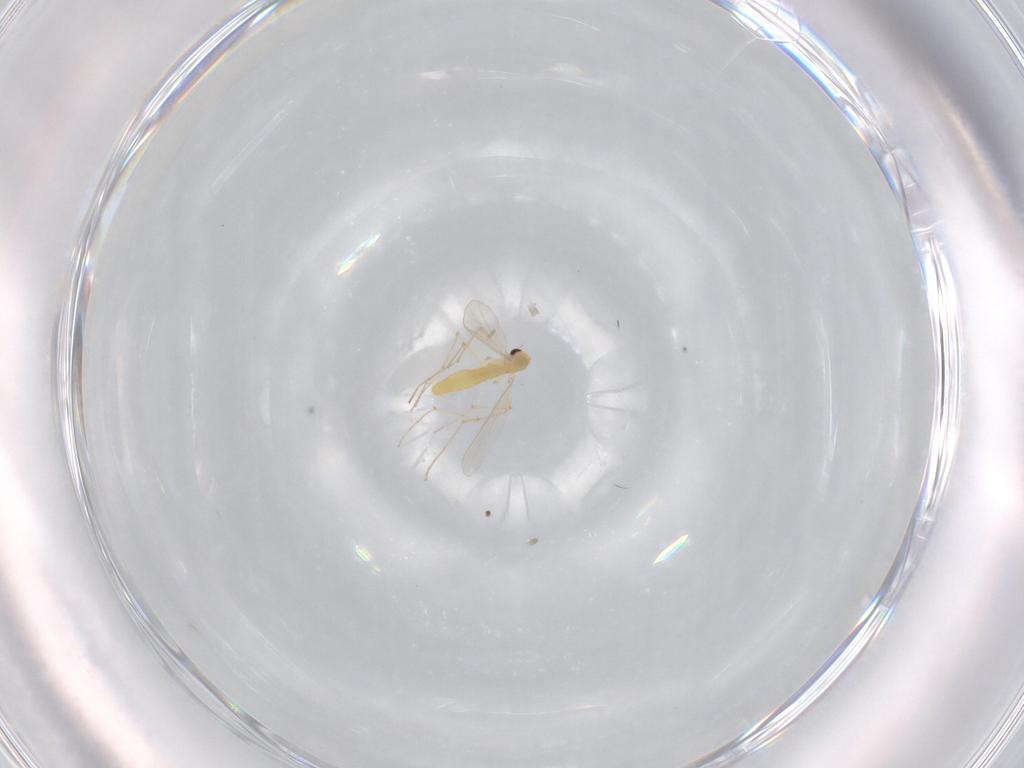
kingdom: Animalia
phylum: Arthropoda
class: Insecta
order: Diptera
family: Chironomidae
